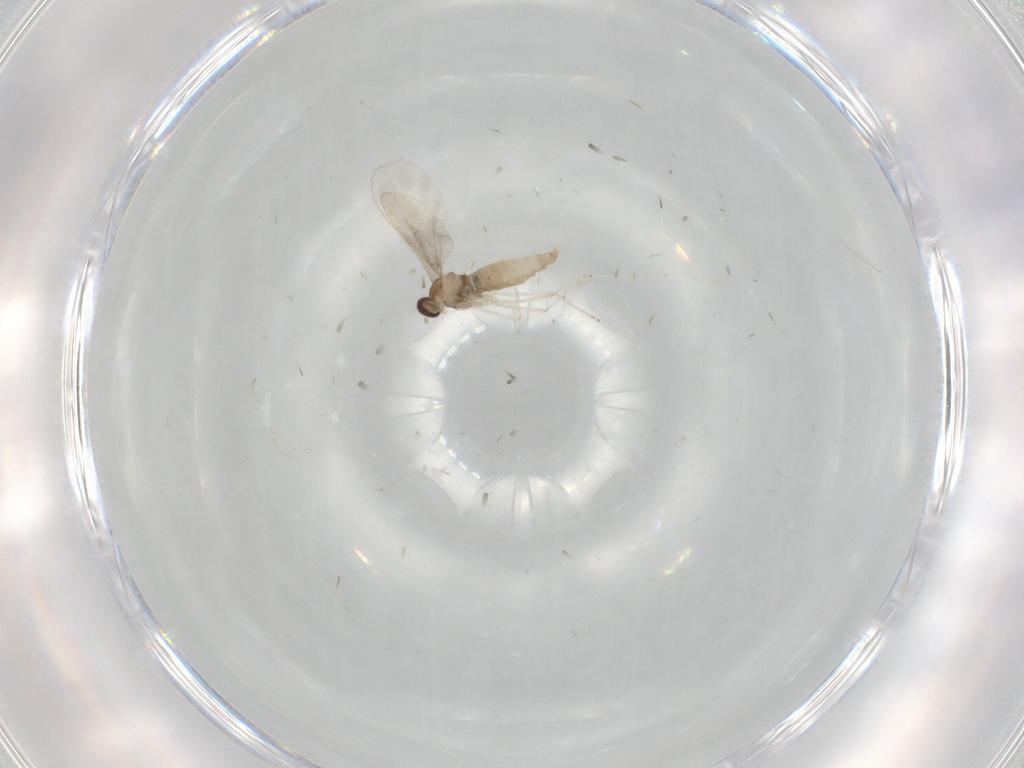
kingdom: Animalia
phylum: Arthropoda
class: Insecta
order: Diptera
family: Cecidomyiidae
